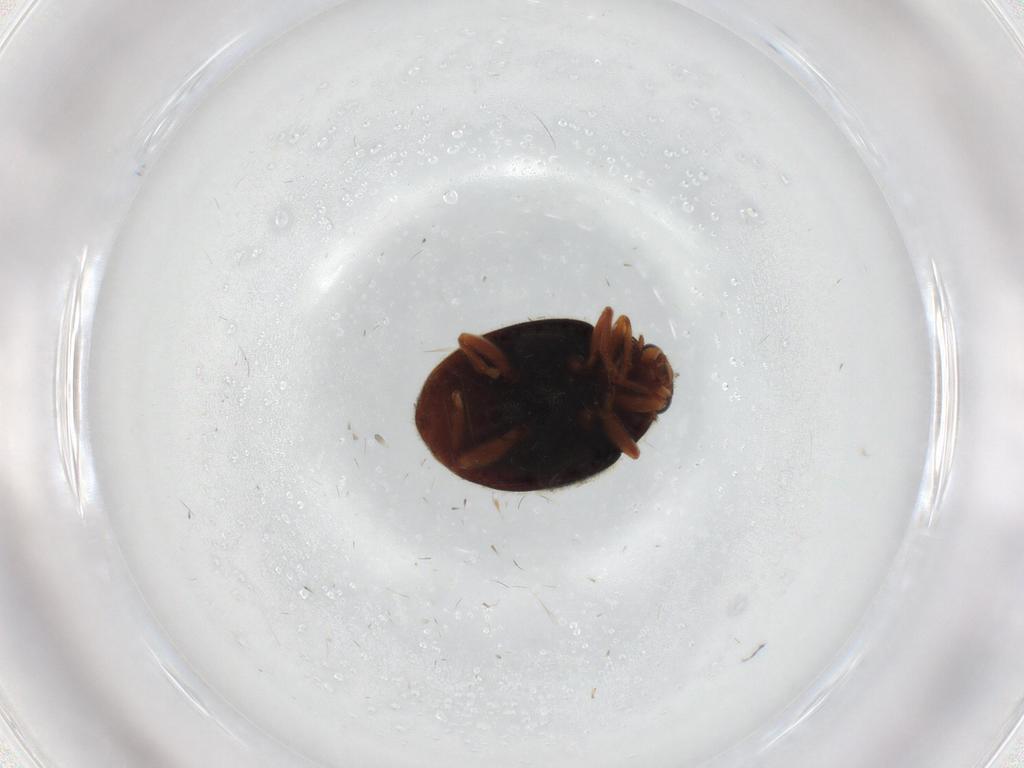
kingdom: Animalia
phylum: Arthropoda
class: Insecta
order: Coleoptera
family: Coccinellidae
